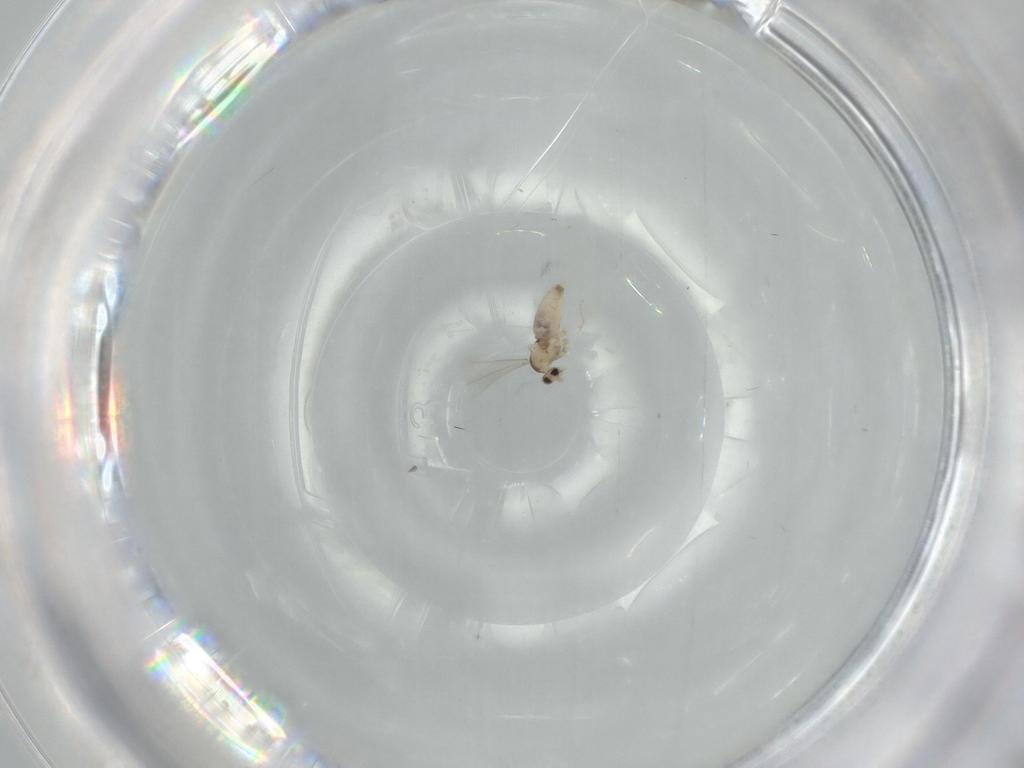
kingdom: Animalia
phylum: Arthropoda
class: Insecta
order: Diptera
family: Cecidomyiidae
